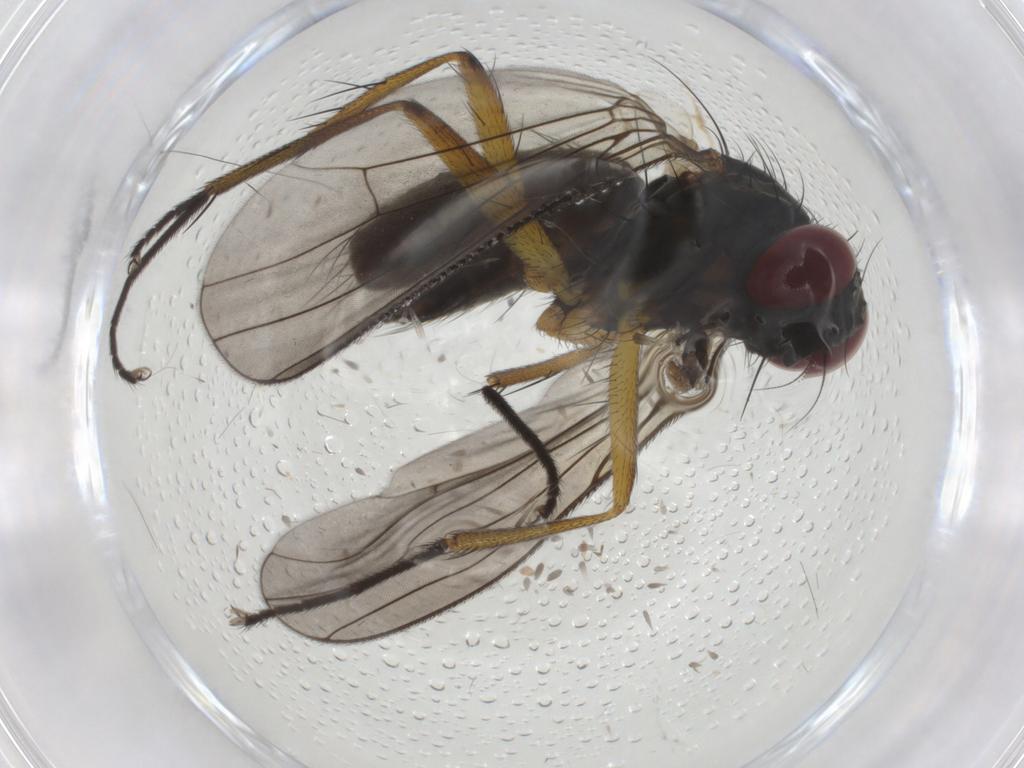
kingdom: Animalia
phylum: Arthropoda
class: Insecta
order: Diptera
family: Muscidae
